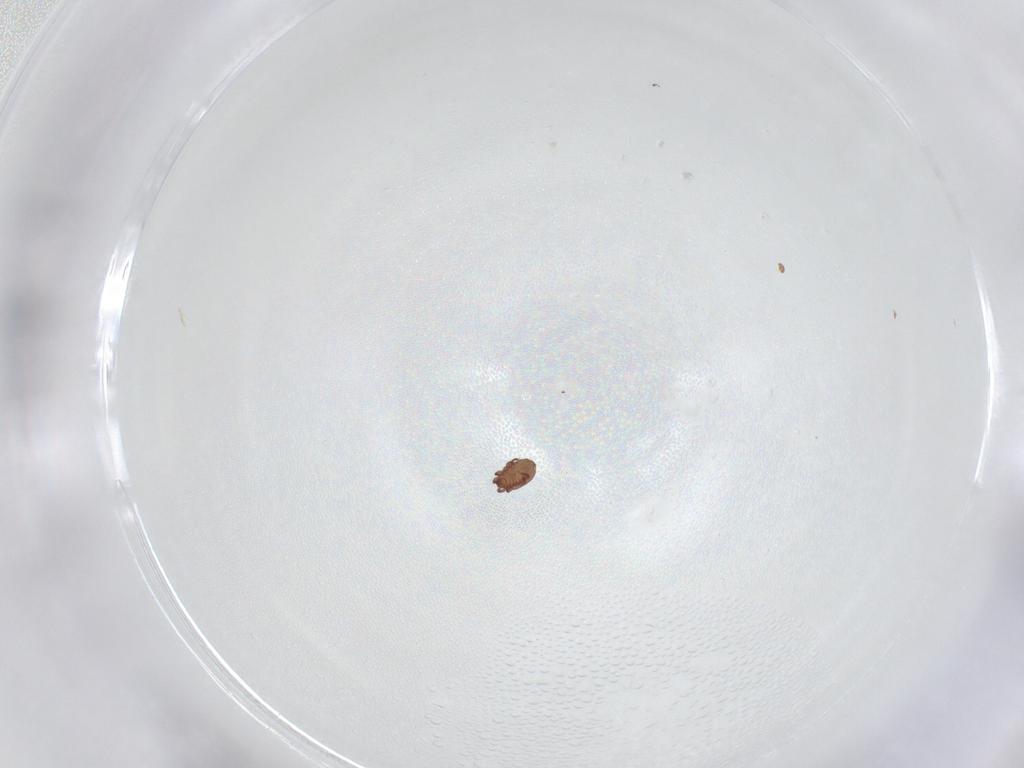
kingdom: Animalia
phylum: Arthropoda
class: Arachnida
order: Sarcoptiformes
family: Achipteriidae
